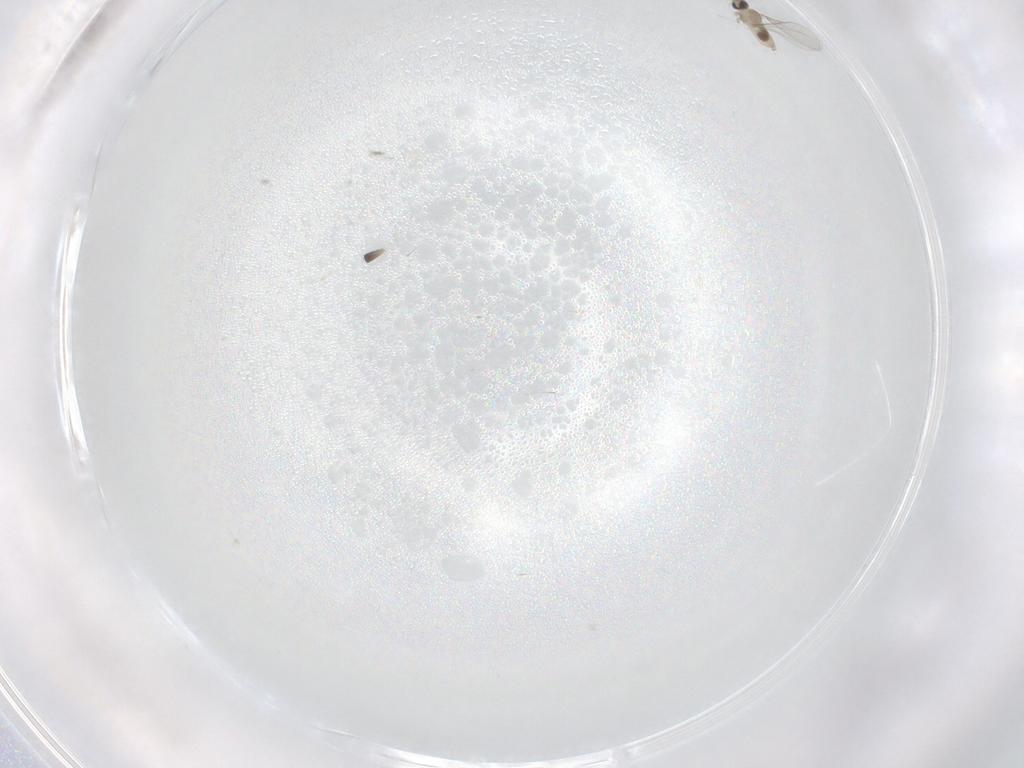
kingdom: Animalia
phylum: Arthropoda
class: Insecta
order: Diptera
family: Cecidomyiidae
